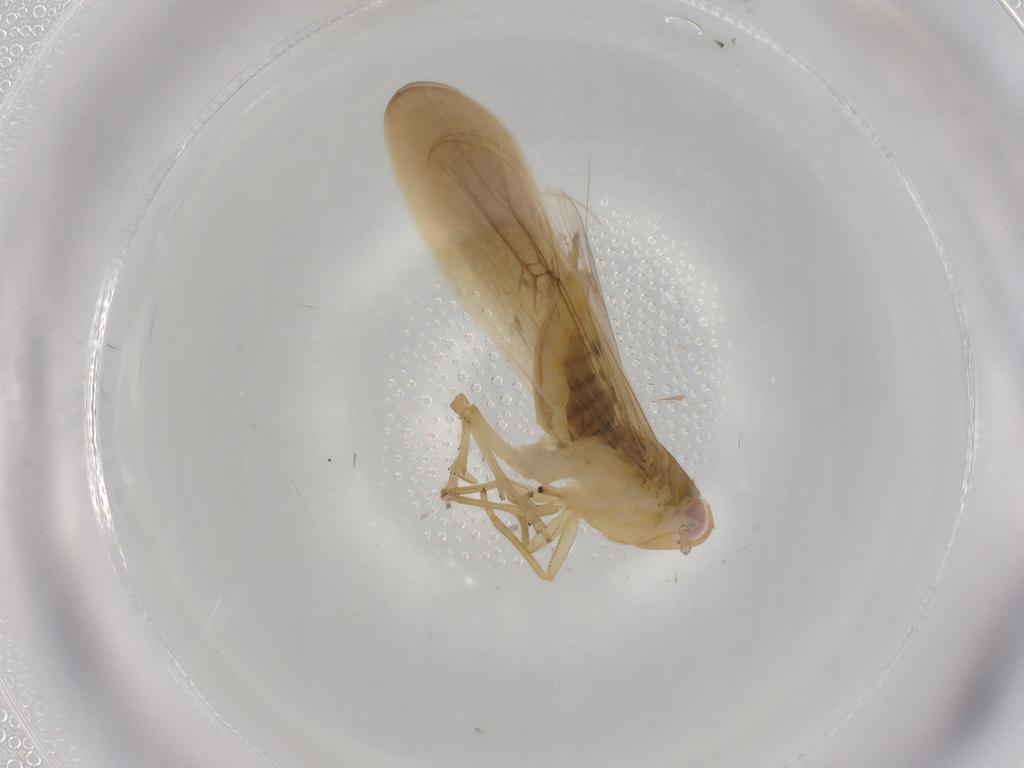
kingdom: Animalia
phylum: Arthropoda
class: Insecta
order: Hemiptera
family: Delphacidae
